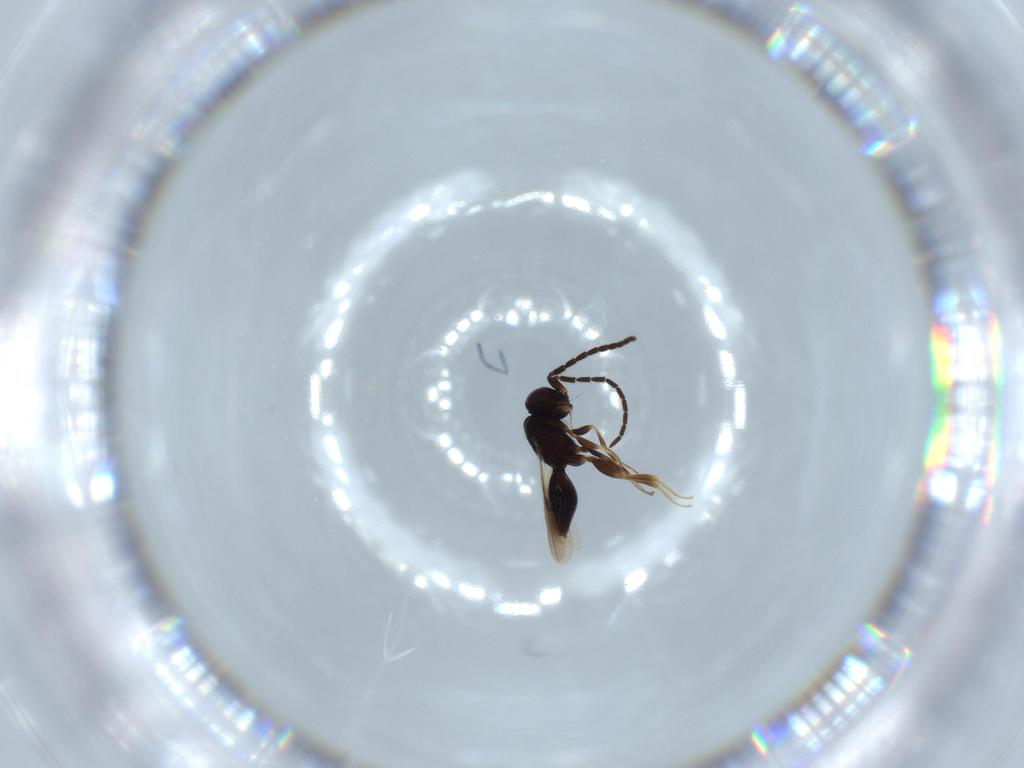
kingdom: Animalia
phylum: Arthropoda
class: Insecta
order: Hymenoptera
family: Megaspilidae
